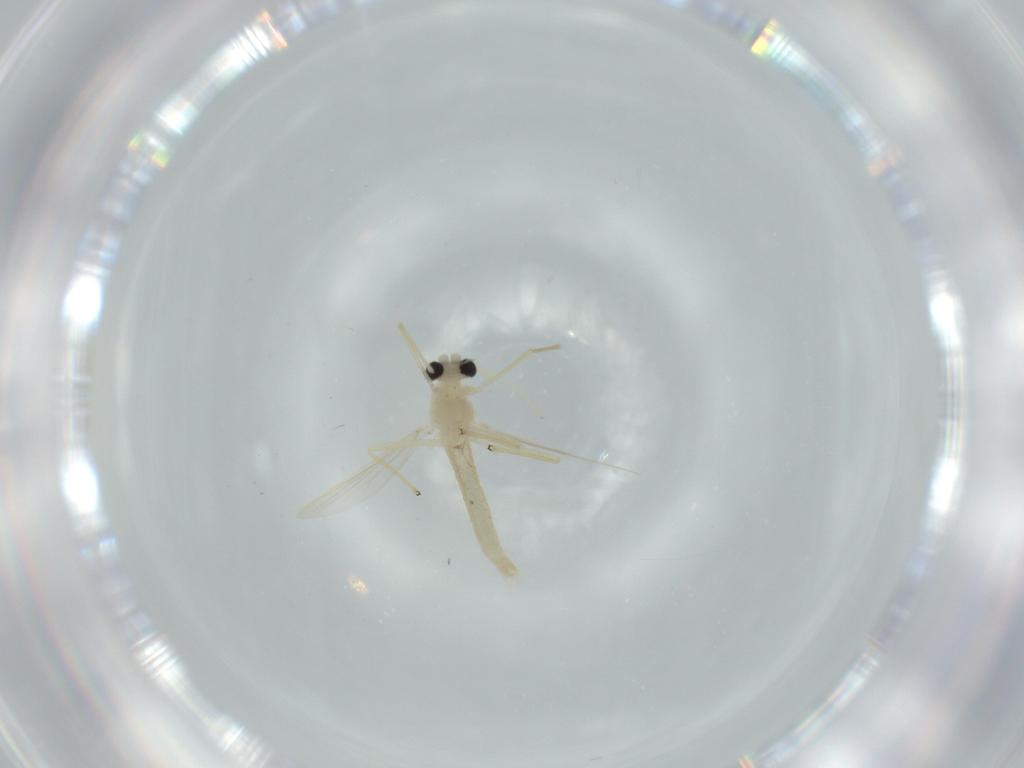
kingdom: Animalia
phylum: Arthropoda
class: Insecta
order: Diptera
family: Chironomidae
